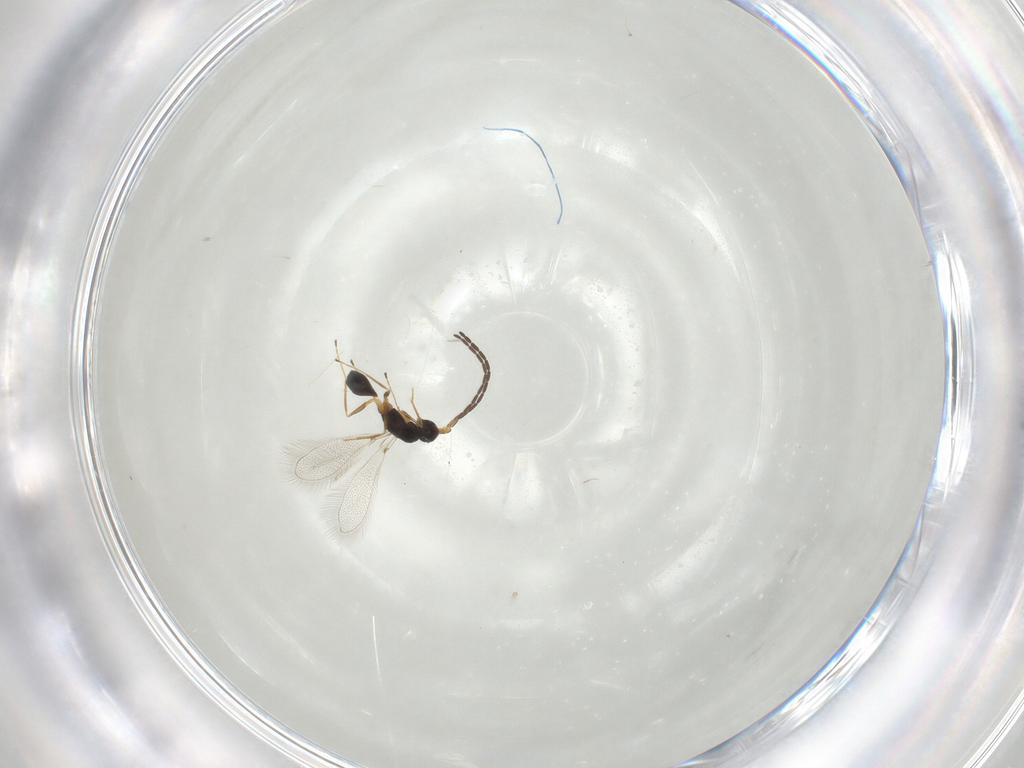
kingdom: Animalia
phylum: Arthropoda
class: Insecta
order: Hymenoptera
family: Mymaridae
